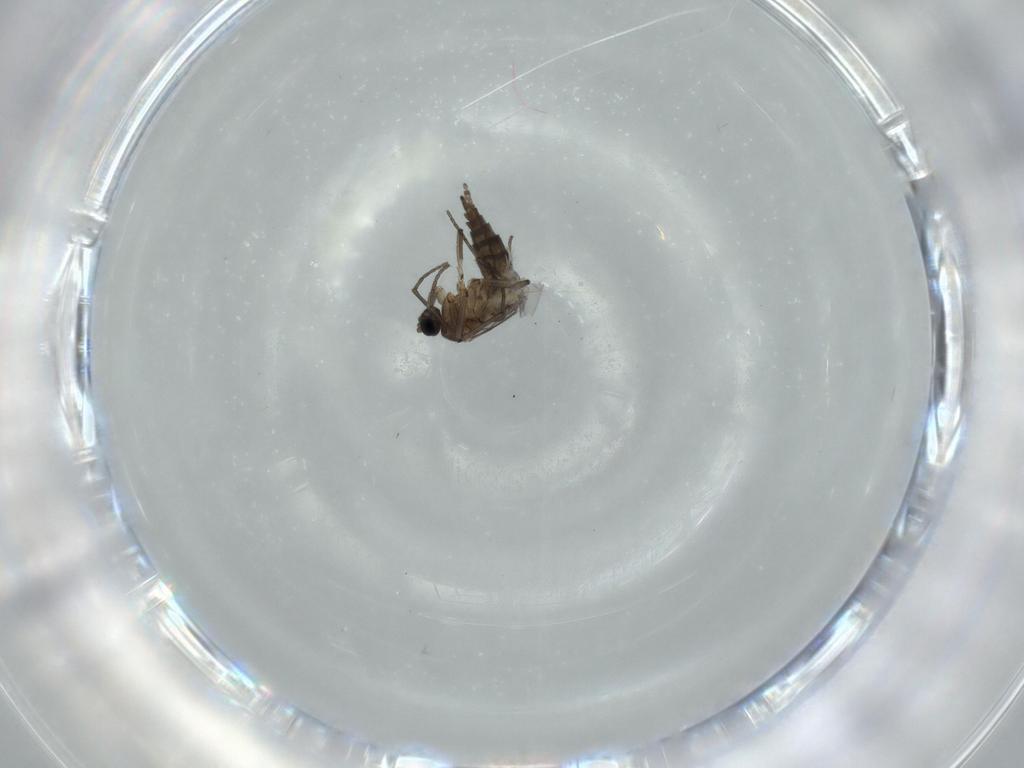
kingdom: Animalia
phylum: Arthropoda
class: Insecta
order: Diptera
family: Sciaridae
